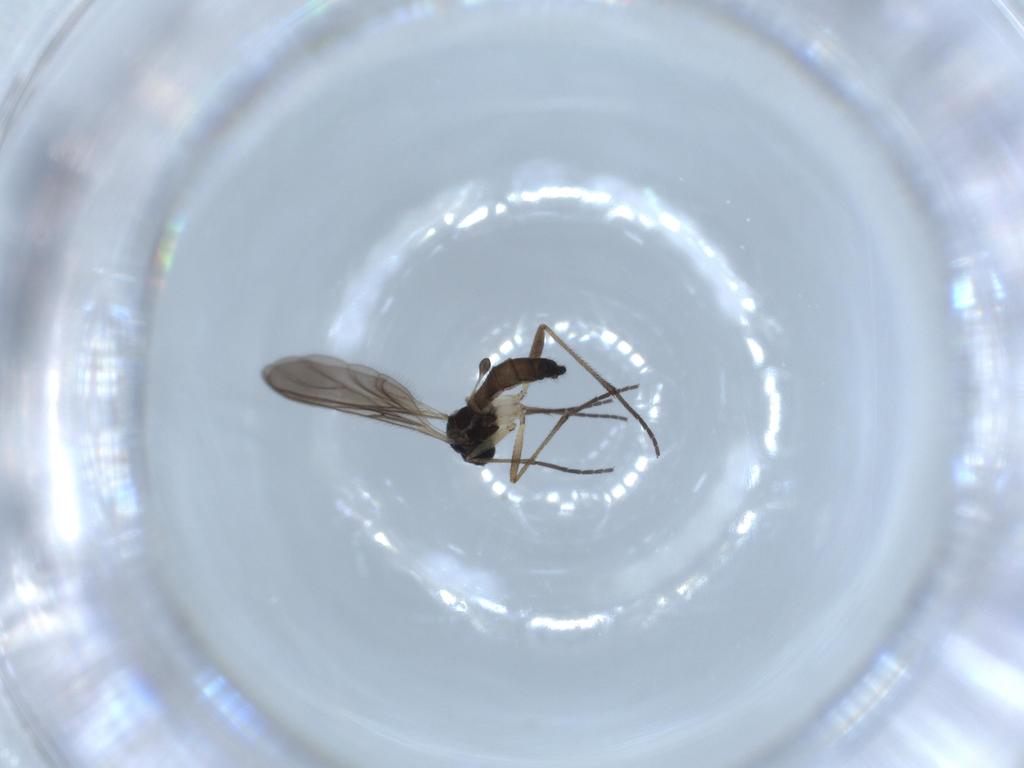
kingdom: Animalia
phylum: Arthropoda
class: Insecta
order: Diptera
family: Sciaridae
